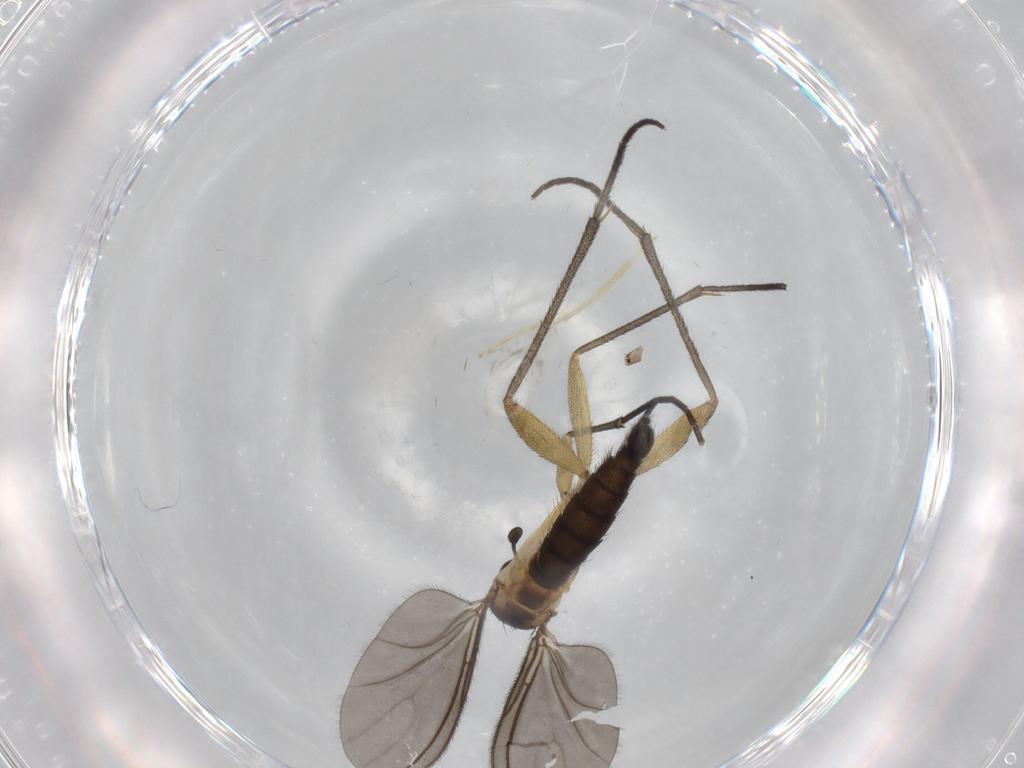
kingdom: Animalia
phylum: Arthropoda
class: Insecta
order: Diptera
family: Sciaridae
